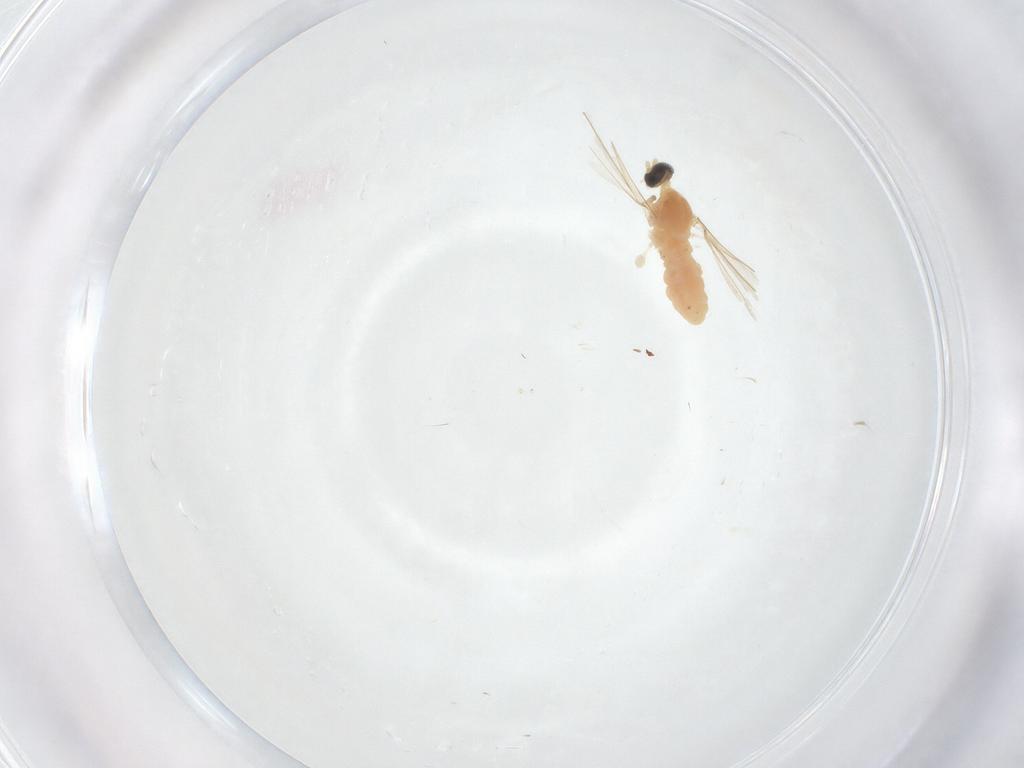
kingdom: Animalia
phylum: Arthropoda
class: Insecta
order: Diptera
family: Cecidomyiidae
